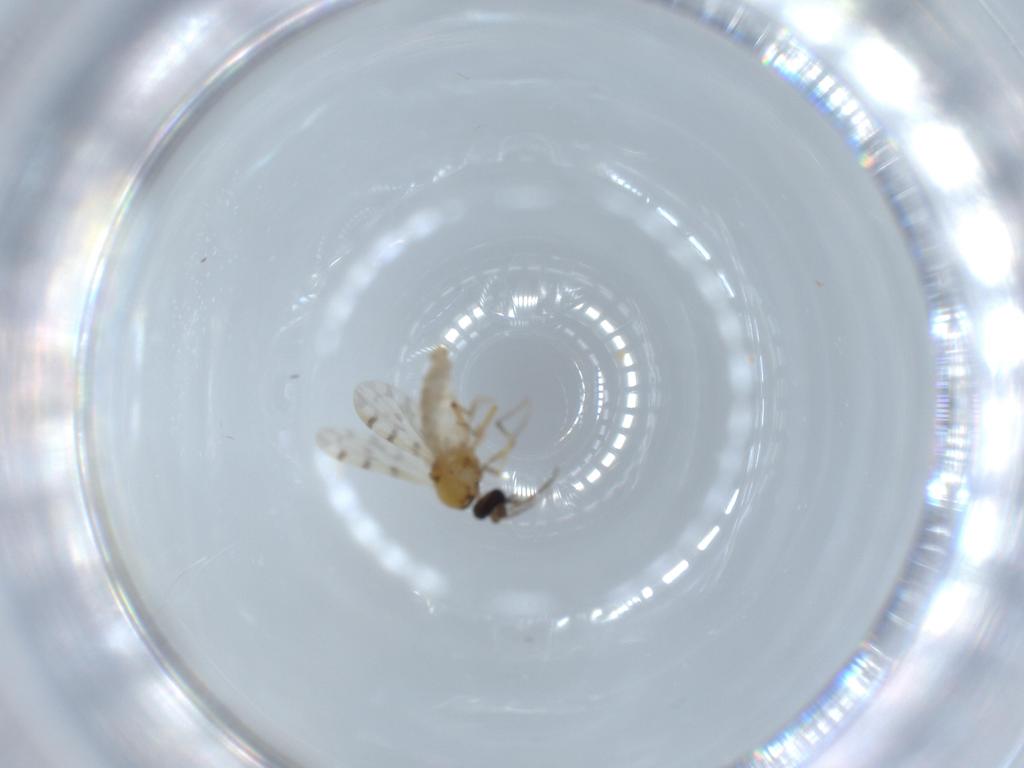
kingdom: Animalia
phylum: Arthropoda
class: Insecta
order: Diptera
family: Ceratopogonidae
